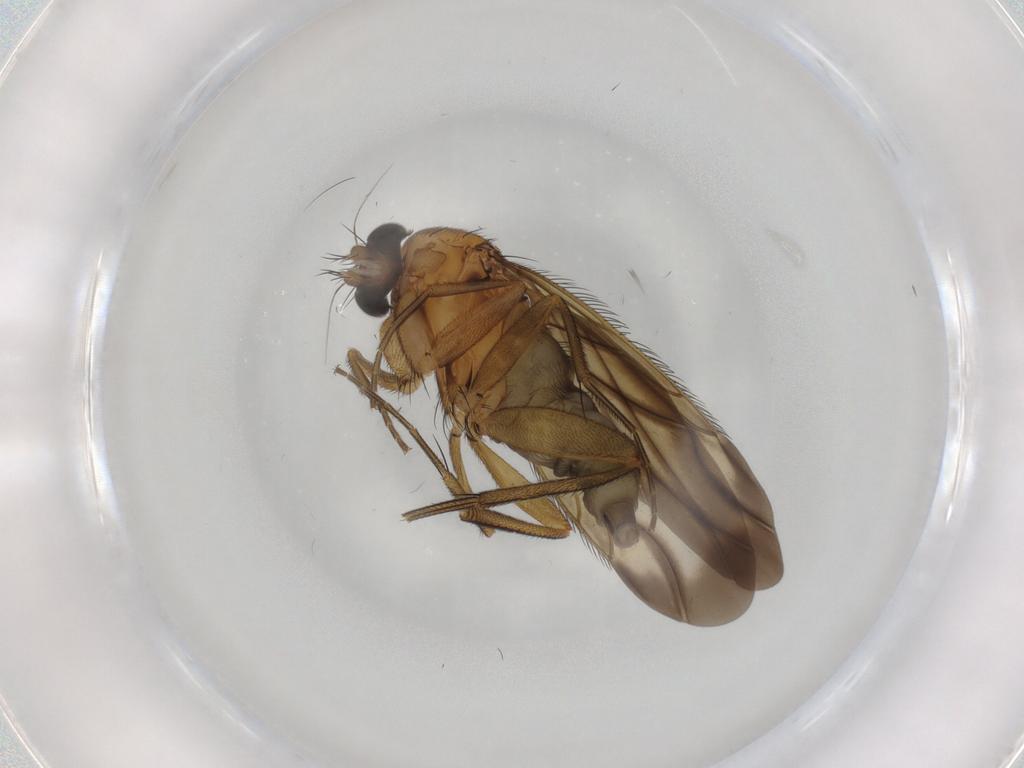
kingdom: Animalia
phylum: Arthropoda
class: Insecta
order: Diptera
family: Phoridae
